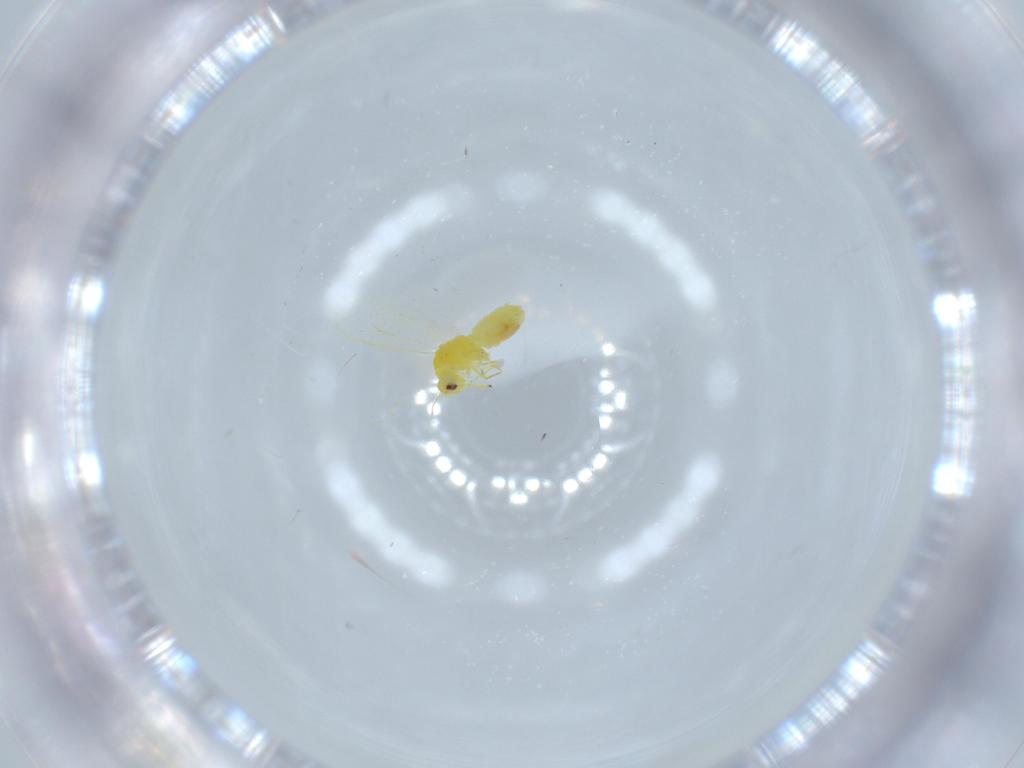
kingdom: Animalia
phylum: Arthropoda
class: Insecta
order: Hemiptera
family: Aleyrodidae
